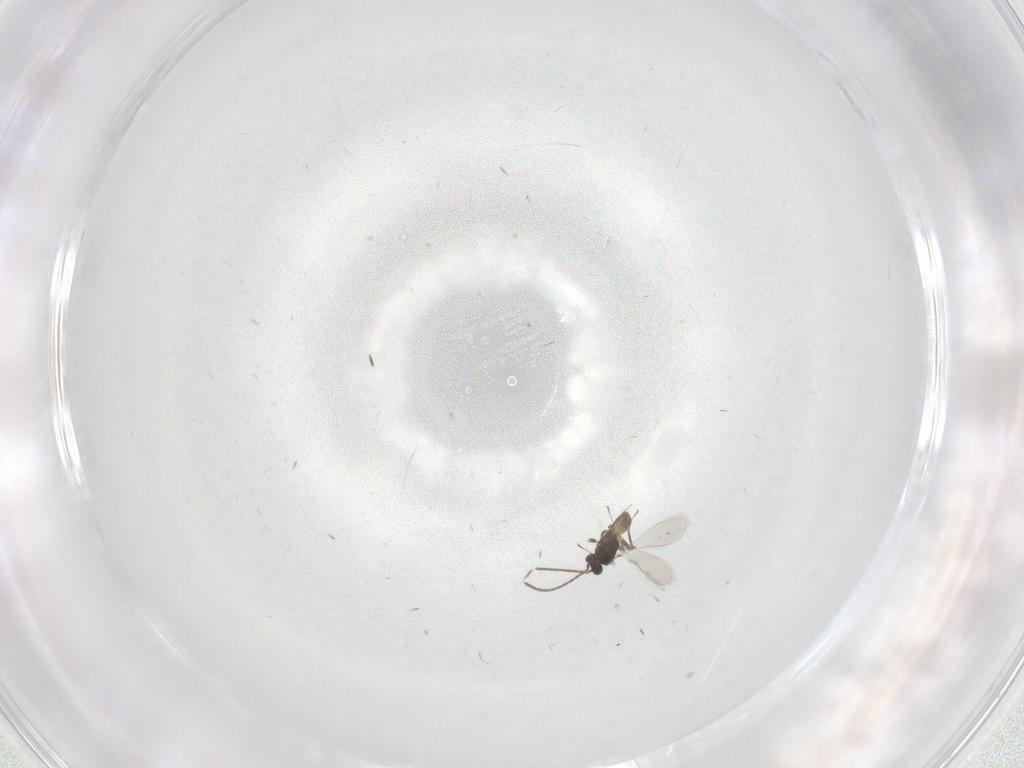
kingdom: Animalia
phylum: Arthropoda
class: Insecta
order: Hymenoptera
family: Mymaridae
